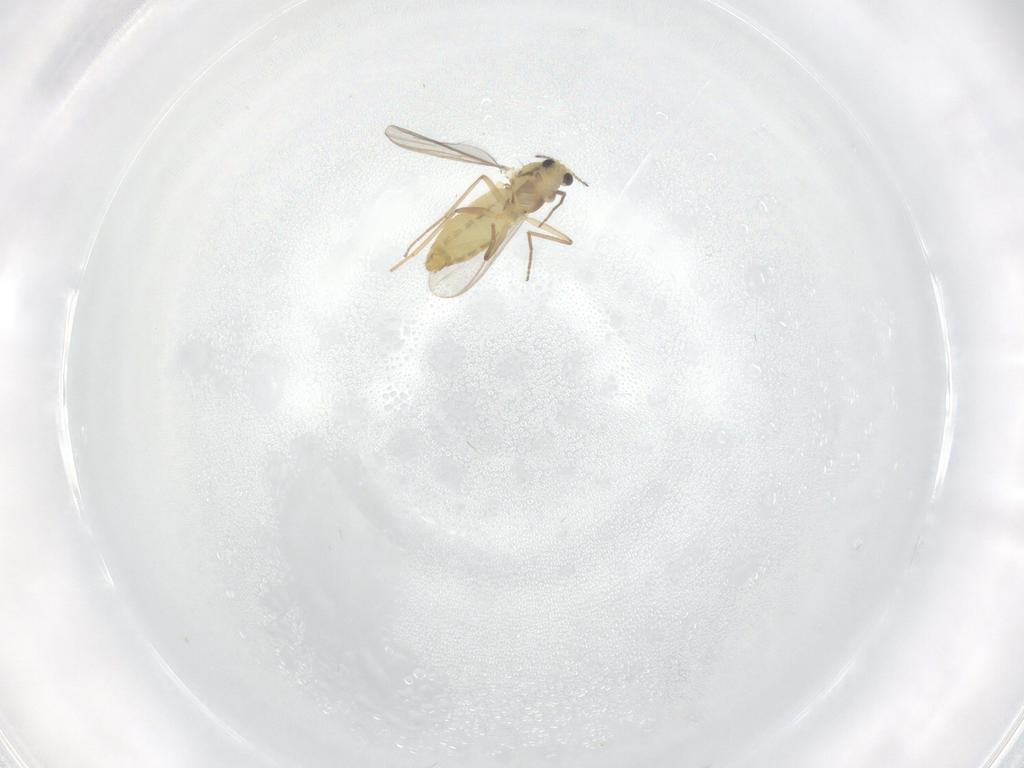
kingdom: Animalia
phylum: Arthropoda
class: Insecta
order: Diptera
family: Chironomidae
